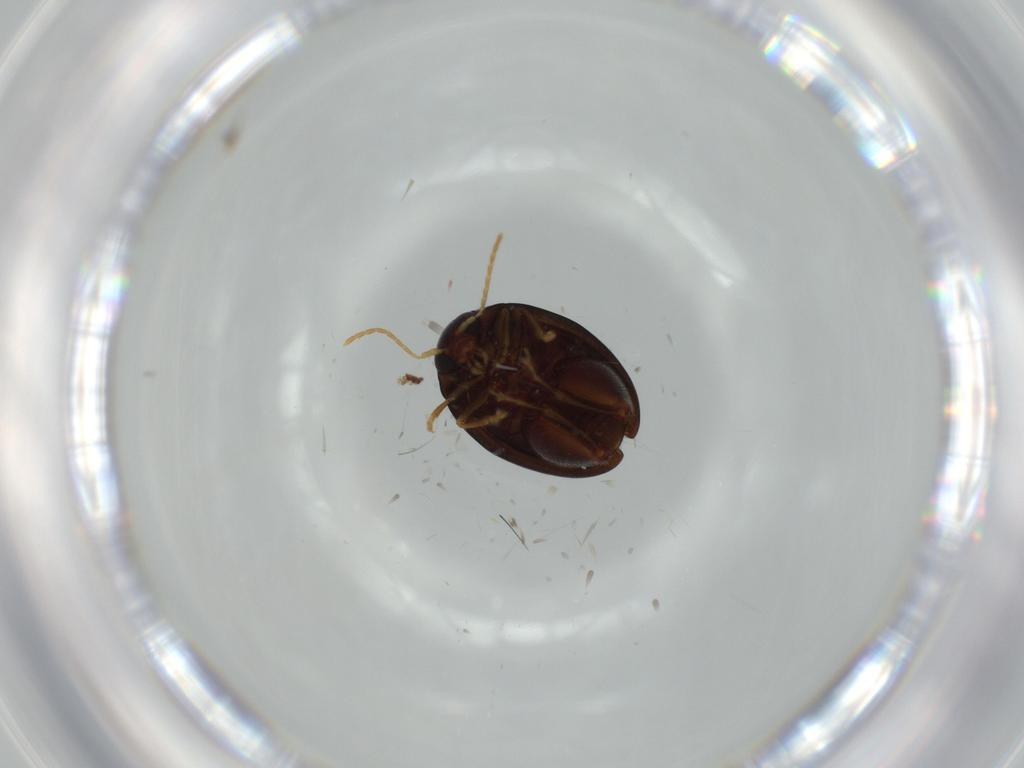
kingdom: Animalia
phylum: Arthropoda
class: Insecta
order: Coleoptera
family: Chrysomelidae
